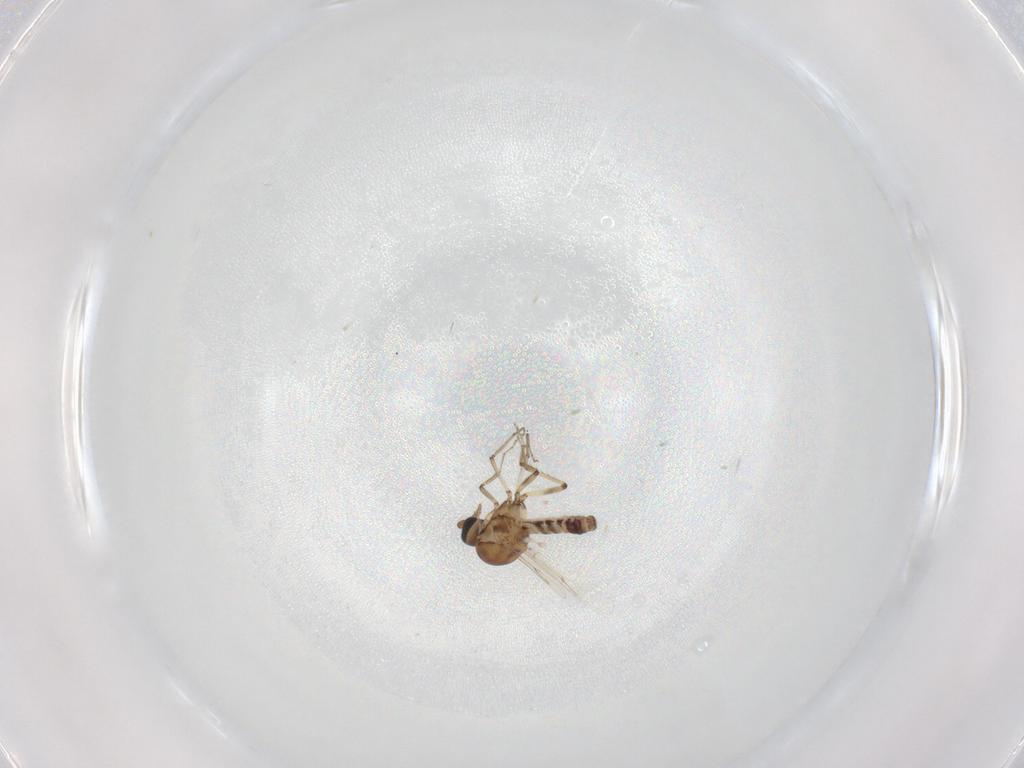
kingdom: Animalia
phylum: Arthropoda
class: Insecta
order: Diptera
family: Ceratopogonidae
